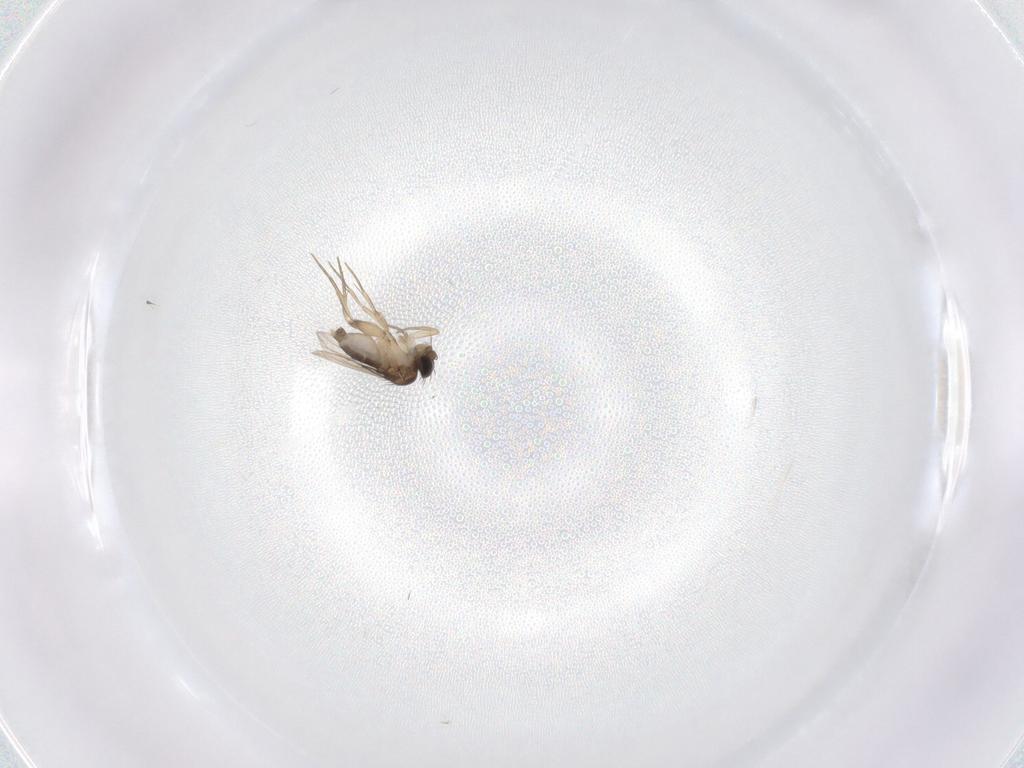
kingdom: Animalia
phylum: Arthropoda
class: Insecta
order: Diptera
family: Phoridae
